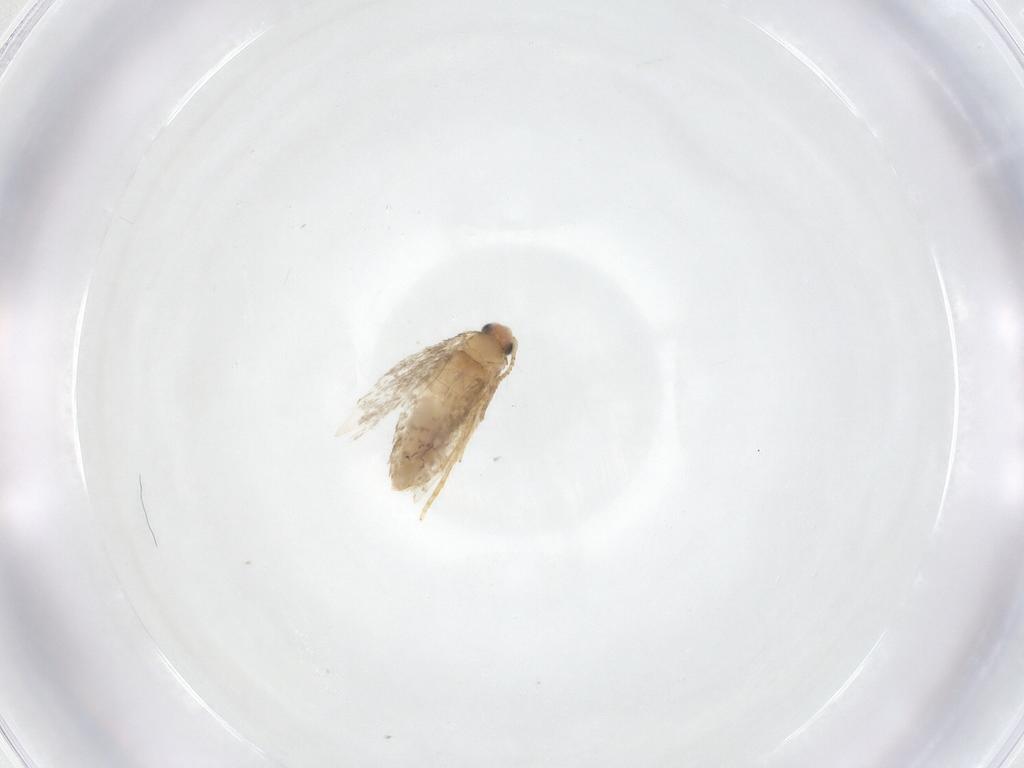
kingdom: Animalia
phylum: Arthropoda
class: Insecta
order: Lepidoptera
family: Nepticulidae
